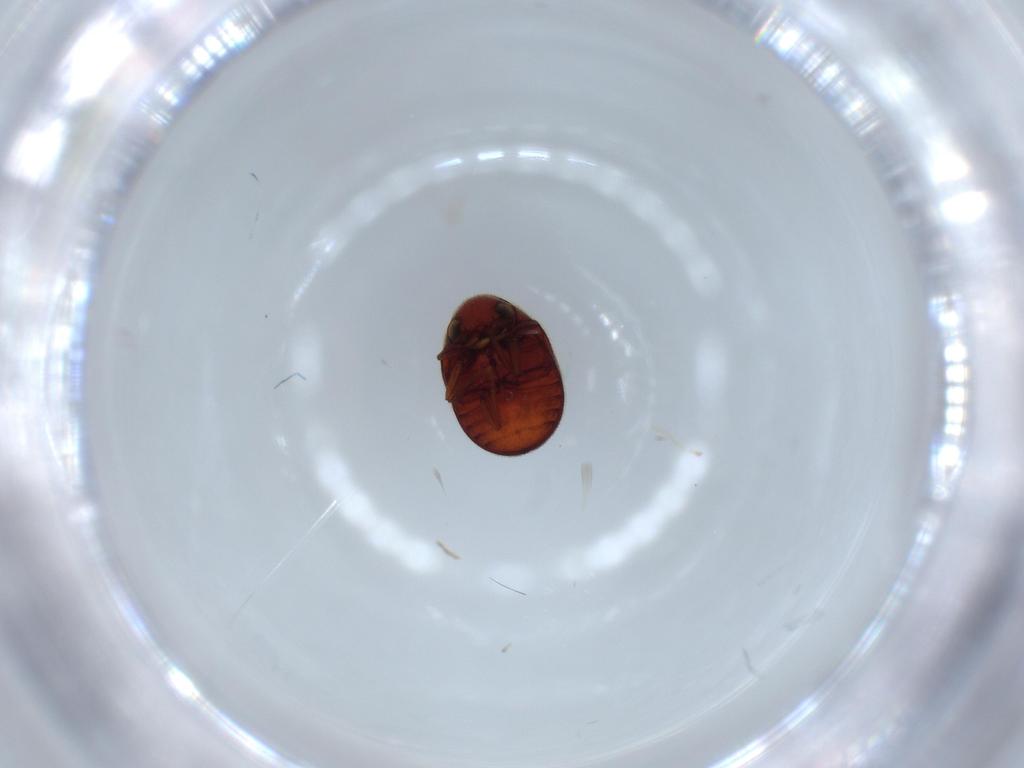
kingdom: Animalia
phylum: Arthropoda
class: Insecta
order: Coleoptera
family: Ptinidae
